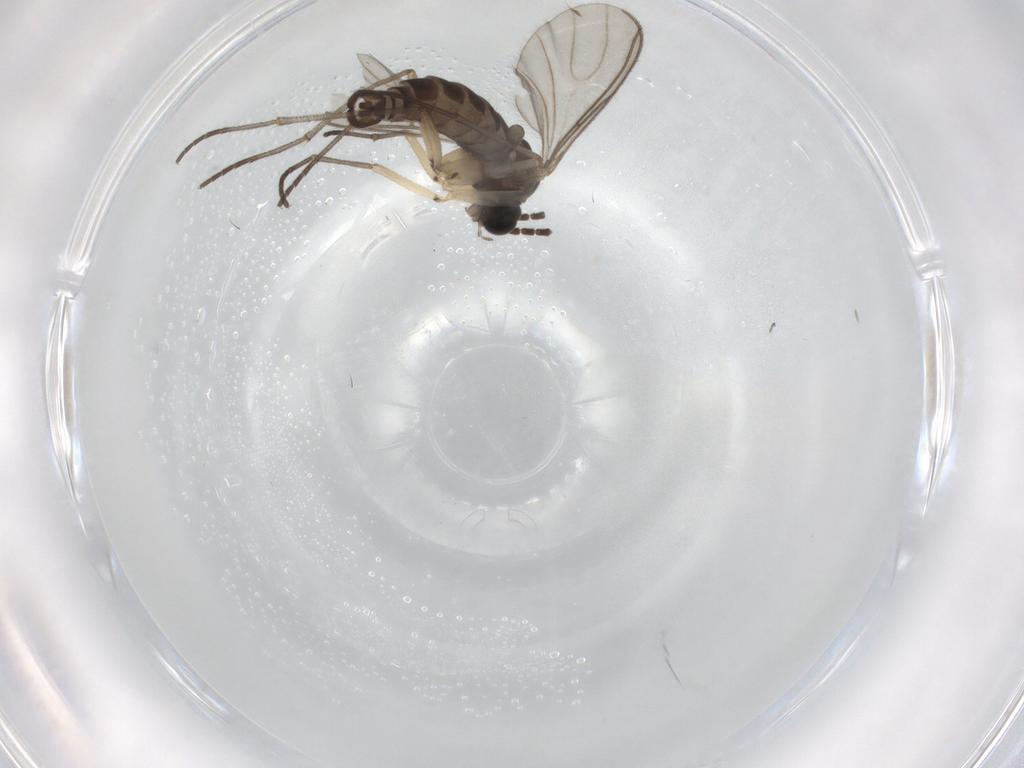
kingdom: Animalia
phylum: Arthropoda
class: Insecta
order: Diptera
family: Sciaridae
